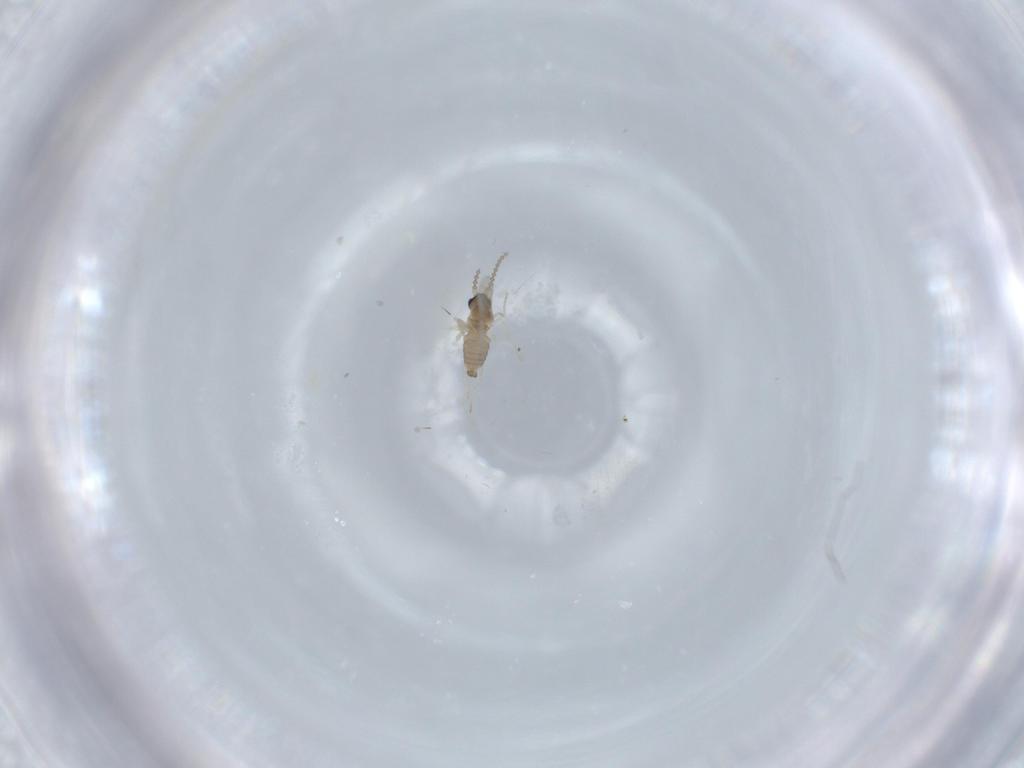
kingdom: Animalia
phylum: Arthropoda
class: Insecta
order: Diptera
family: Cecidomyiidae
